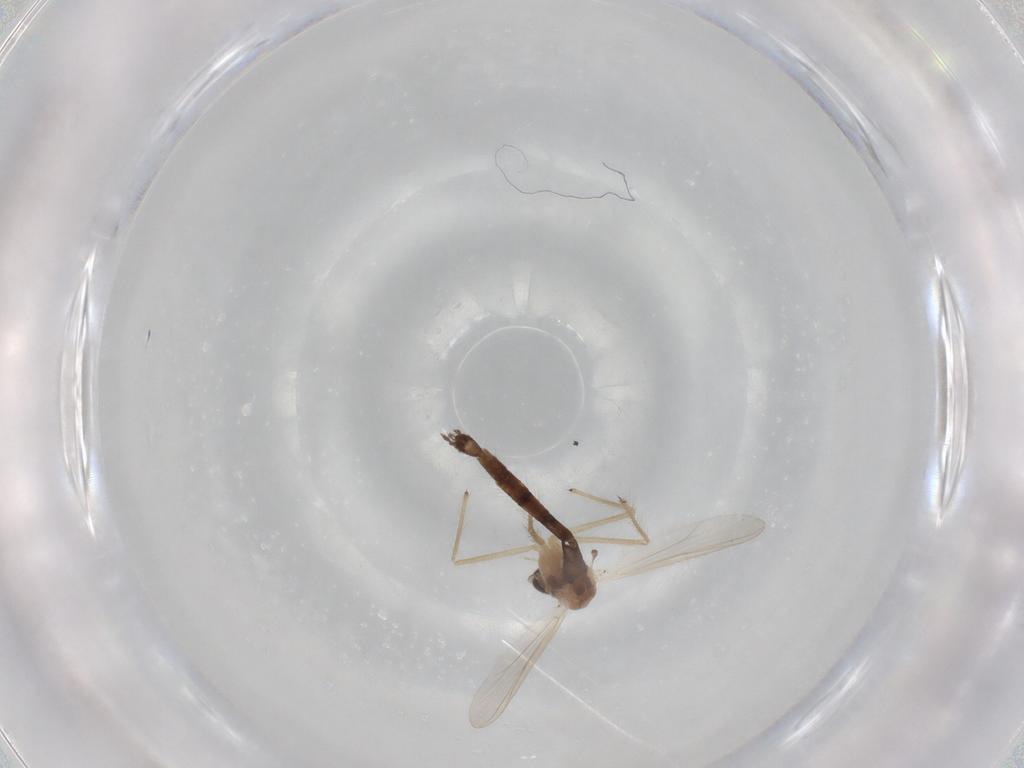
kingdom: Animalia
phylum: Arthropoda
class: Insecta
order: Diptera
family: Chironomidae
